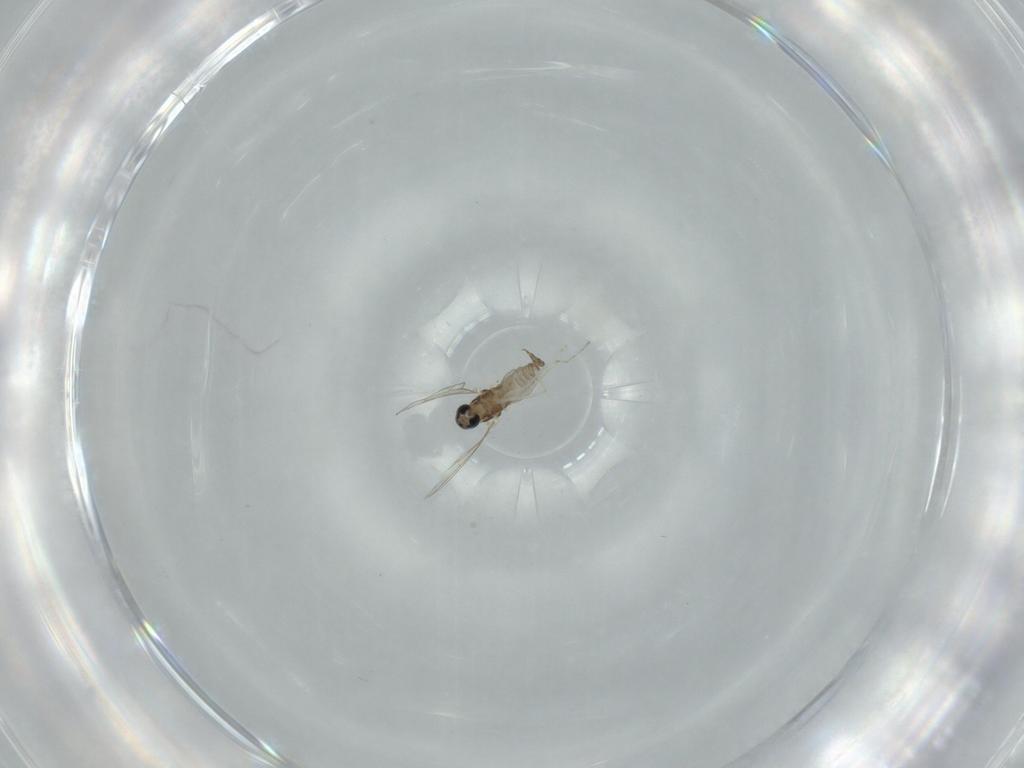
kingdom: Animalia
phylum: Arthropoda
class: Insecta
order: Diptera
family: Cecidomyiidae
